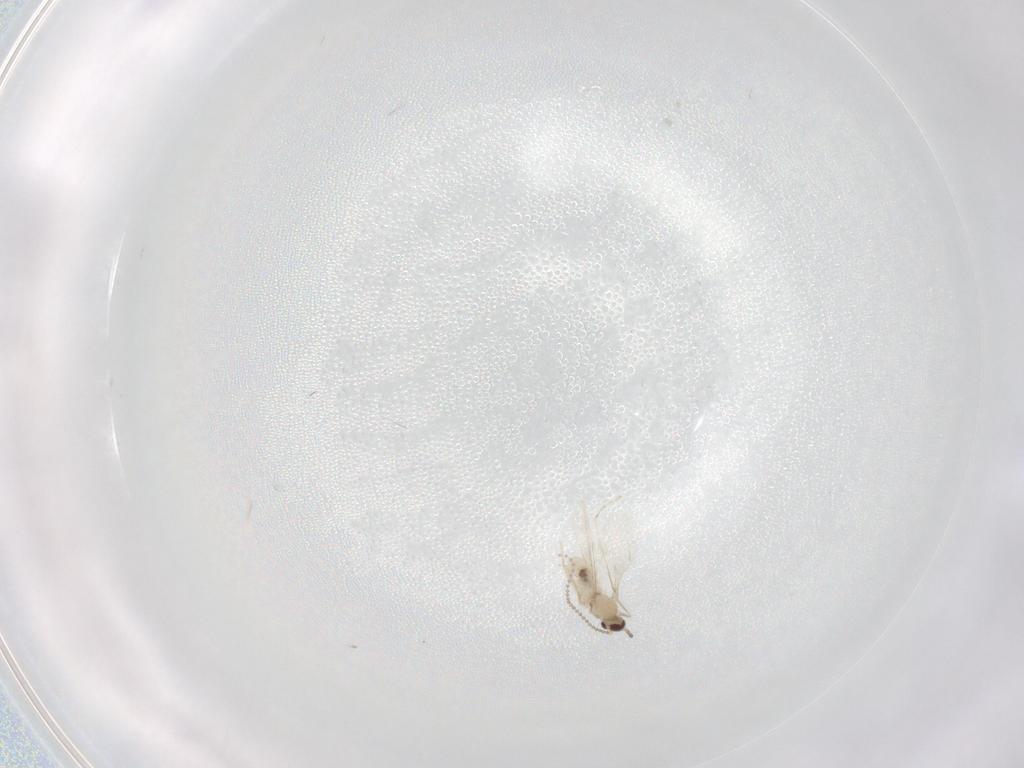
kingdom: Animalia
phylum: Arthropoda
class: Insecta
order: Diptera
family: Cecidomyiidae
